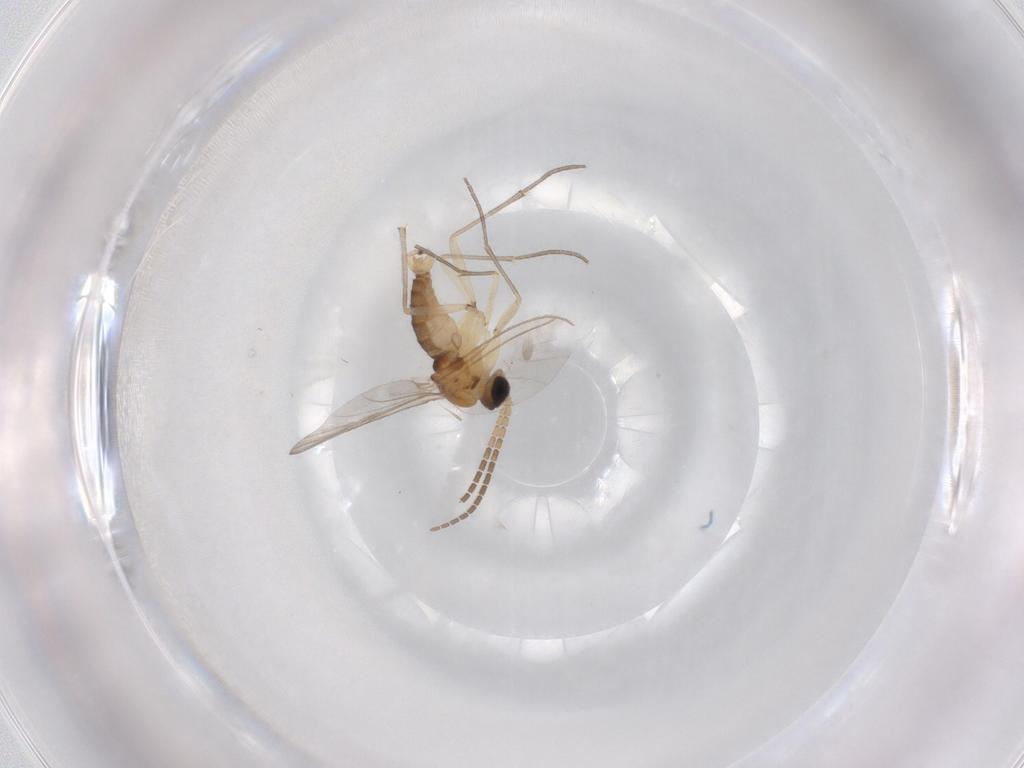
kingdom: Animalia
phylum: Arthropoda
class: Insecta
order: Diptera
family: Sciaridae
